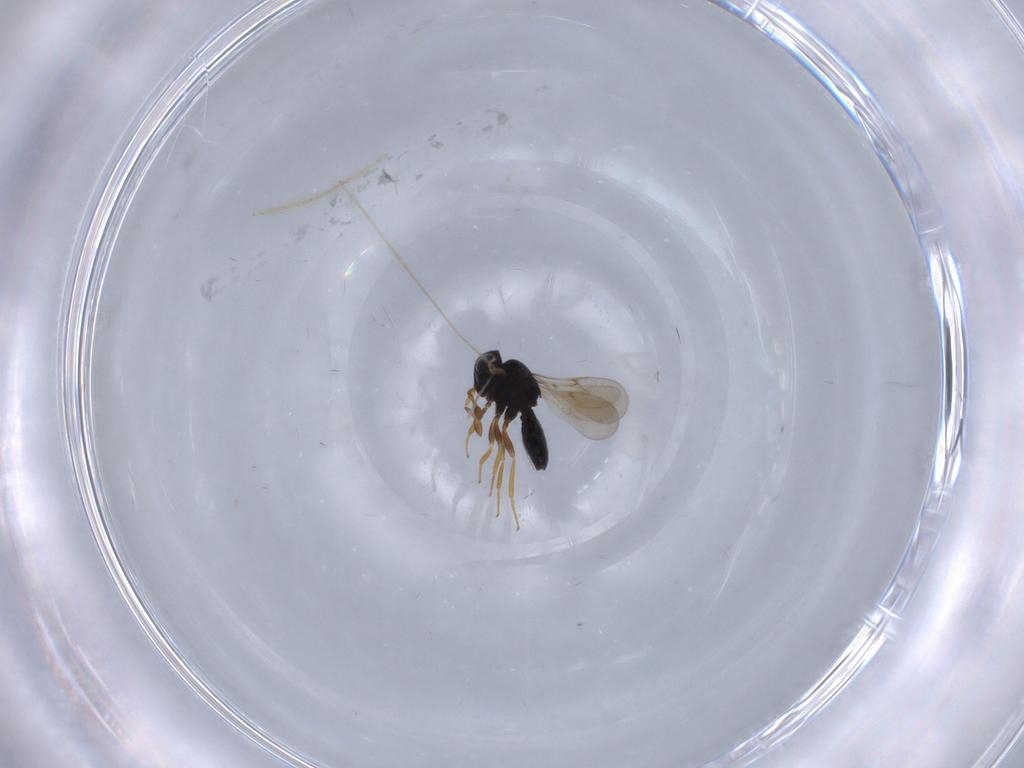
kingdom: Animalia
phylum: Arthropoda
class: Insecta
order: Hymenoptera
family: Scelionidae
